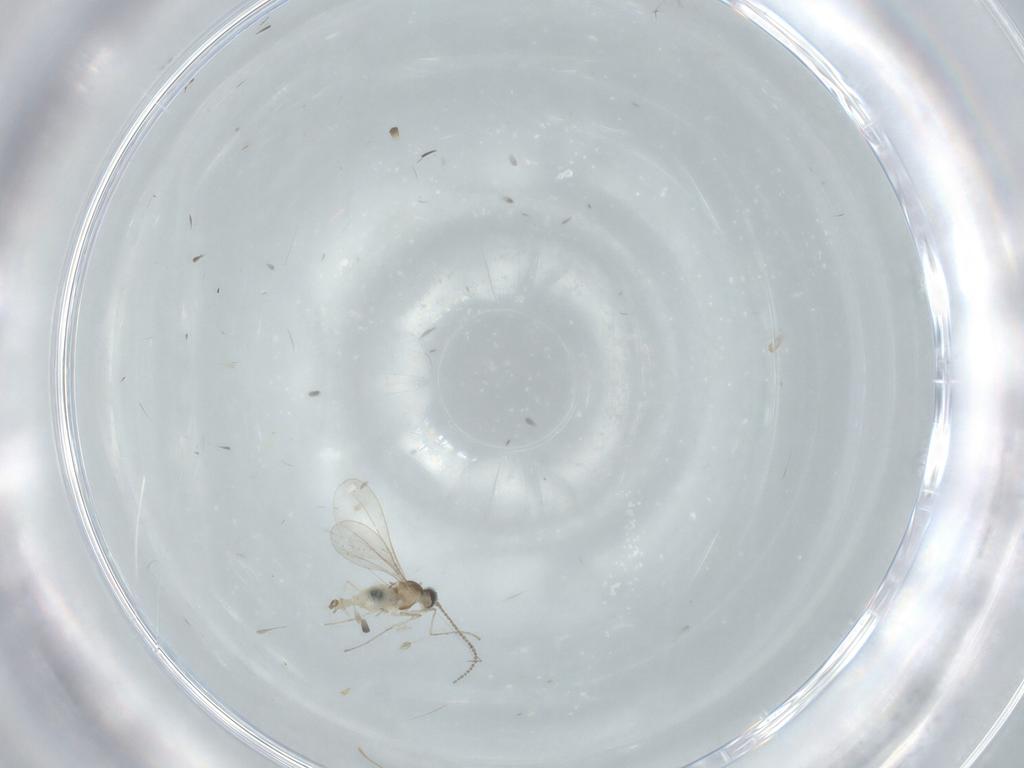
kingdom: Animalia
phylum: Arthropoda
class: Insecta
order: Diptera
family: Cecidomyiidae
